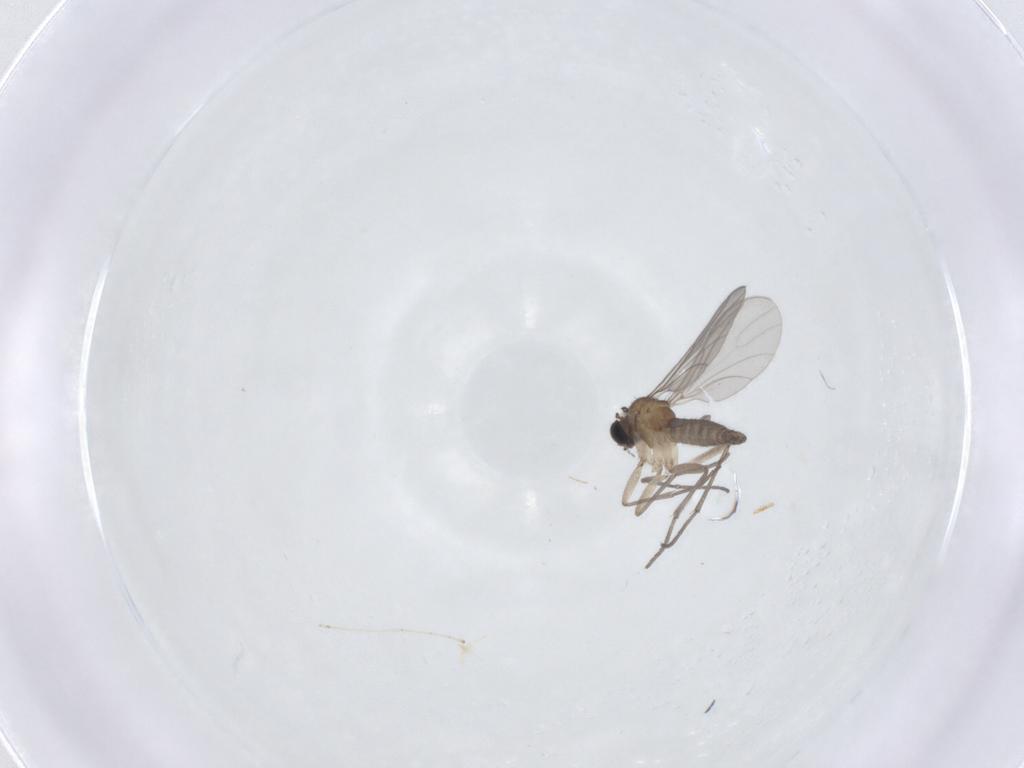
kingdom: Animalia
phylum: Arthropoda
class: Insecta
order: Diptera
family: Sciaridae
